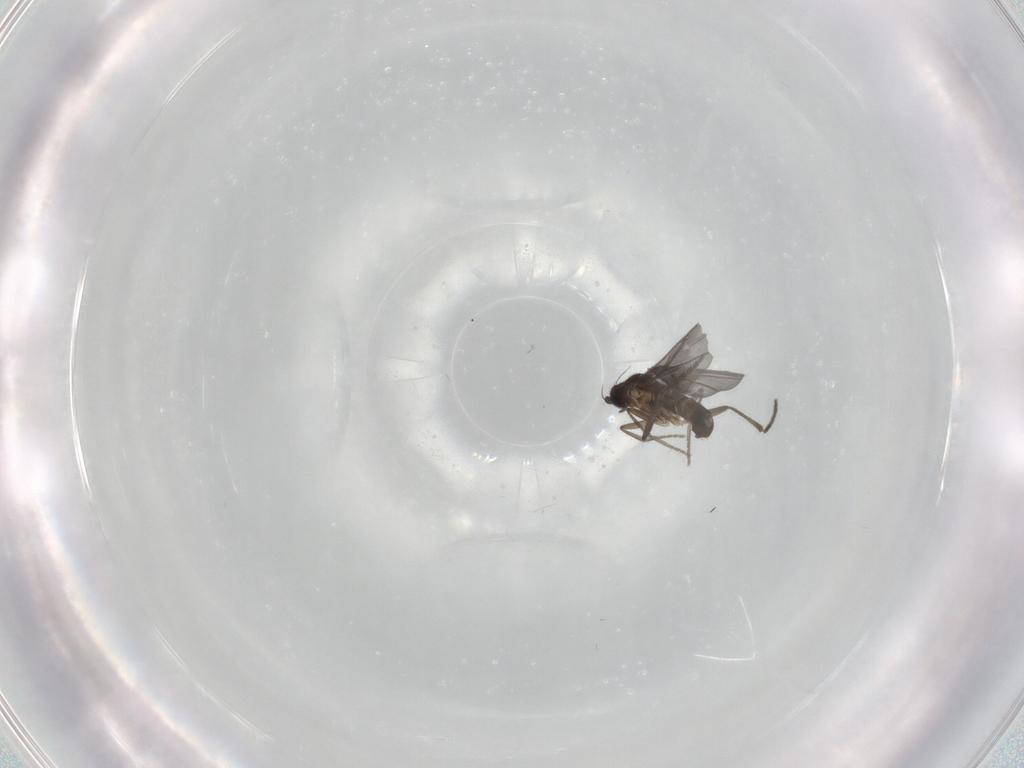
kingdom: Animalia
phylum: Arthropoda
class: Insecta
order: Diptera
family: Phoridae
